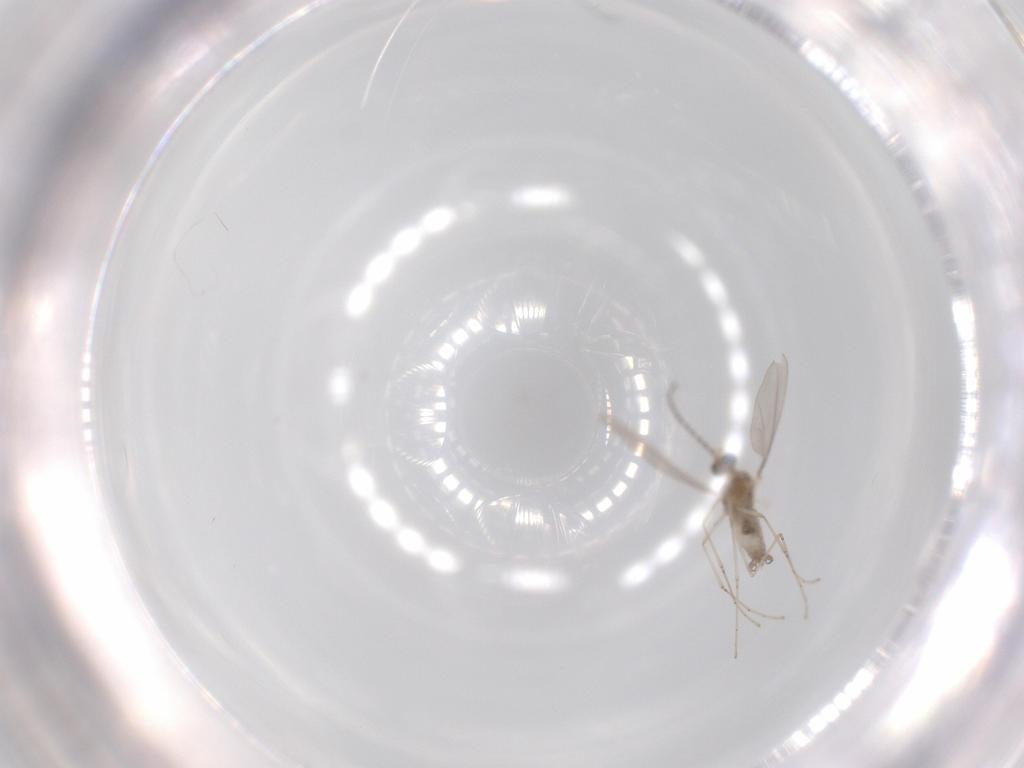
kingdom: Animalia
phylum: Arthropoda
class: Insecta
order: Diptera
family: Cecidomyiidae
